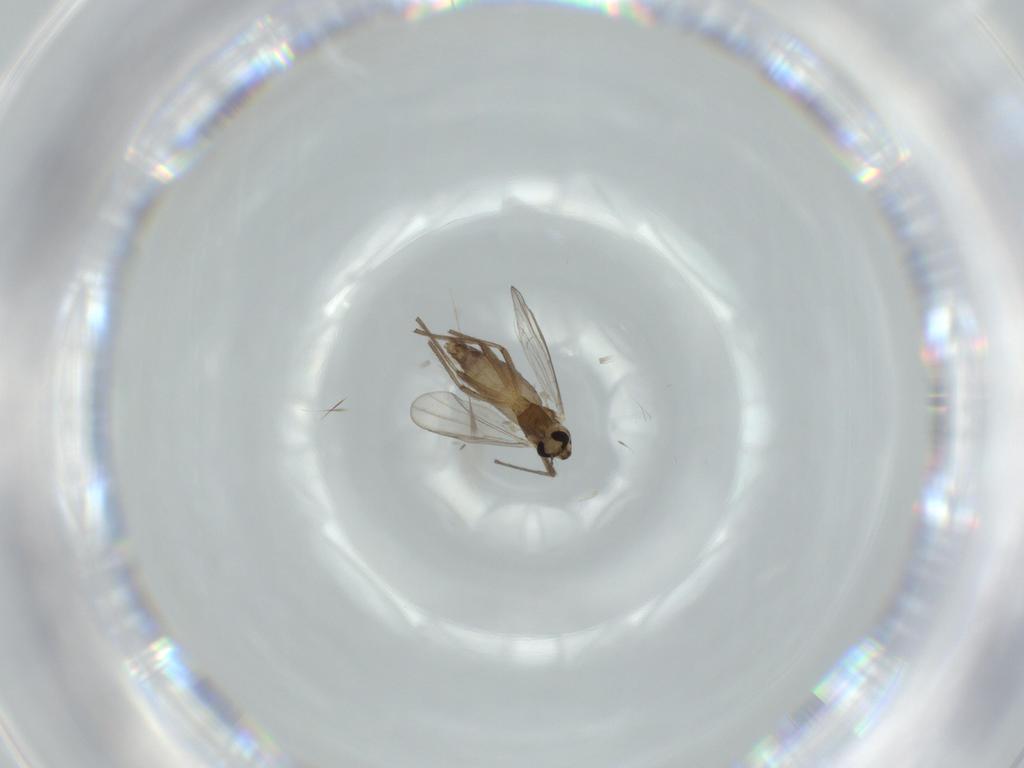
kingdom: Animalia
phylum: Arthropoda
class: Insecta
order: Diptera
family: Chironomidae
